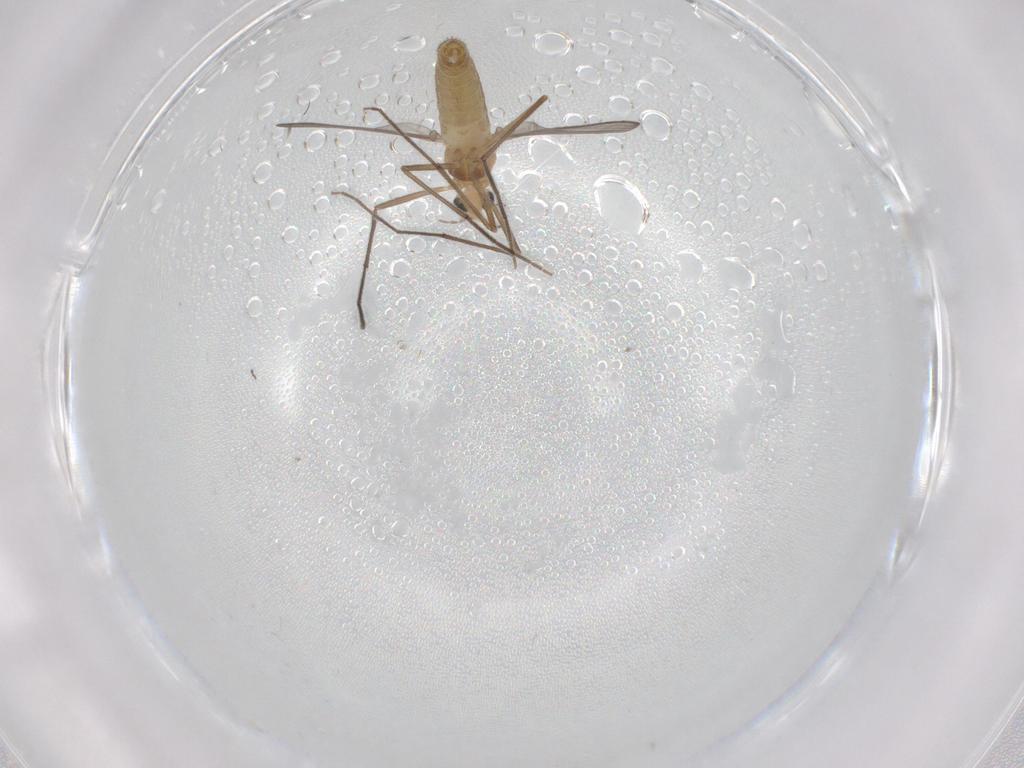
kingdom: Animalia
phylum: Arthropoda
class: Insecta
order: Diptera
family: Chironomidae
